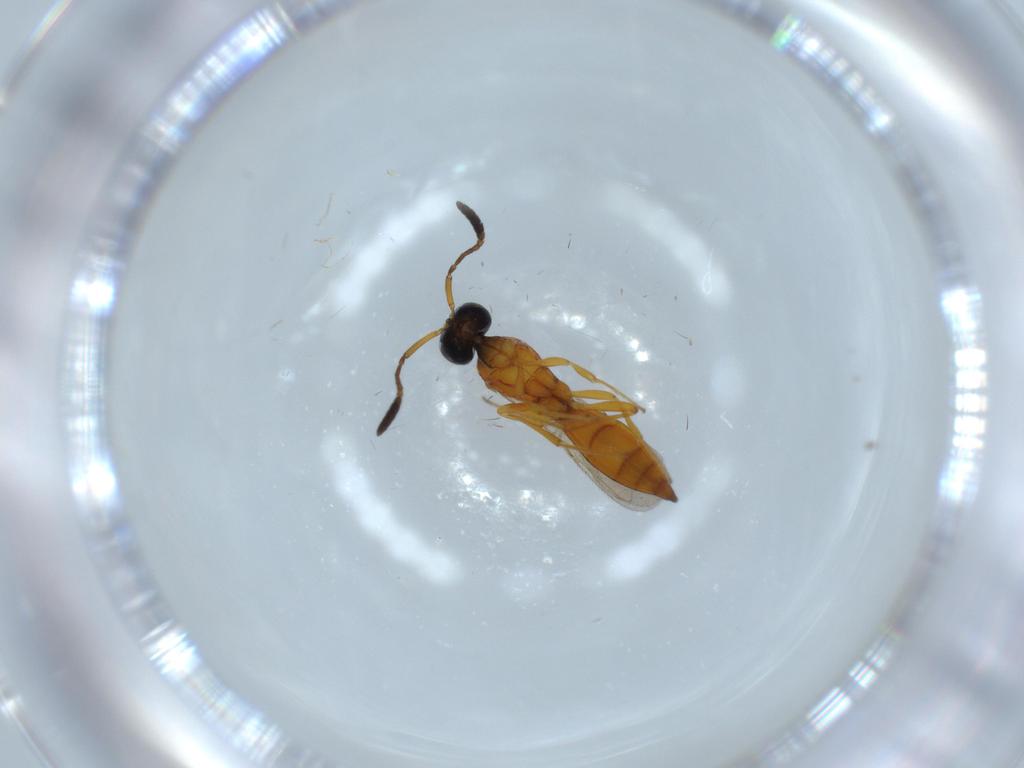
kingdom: Animalia
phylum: Arthropoda
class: Insecta
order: Hymenoptera
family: Scelionidae
